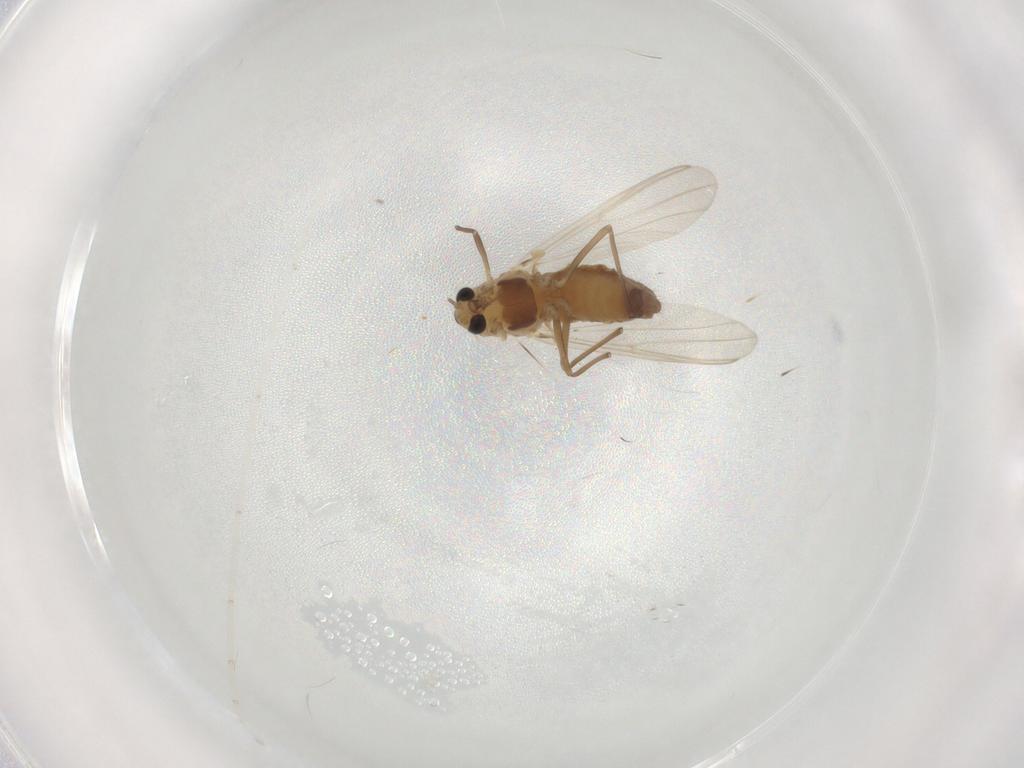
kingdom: Animalia
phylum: Arthropoda
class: Insecta
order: Diptera
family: Chironomidae
